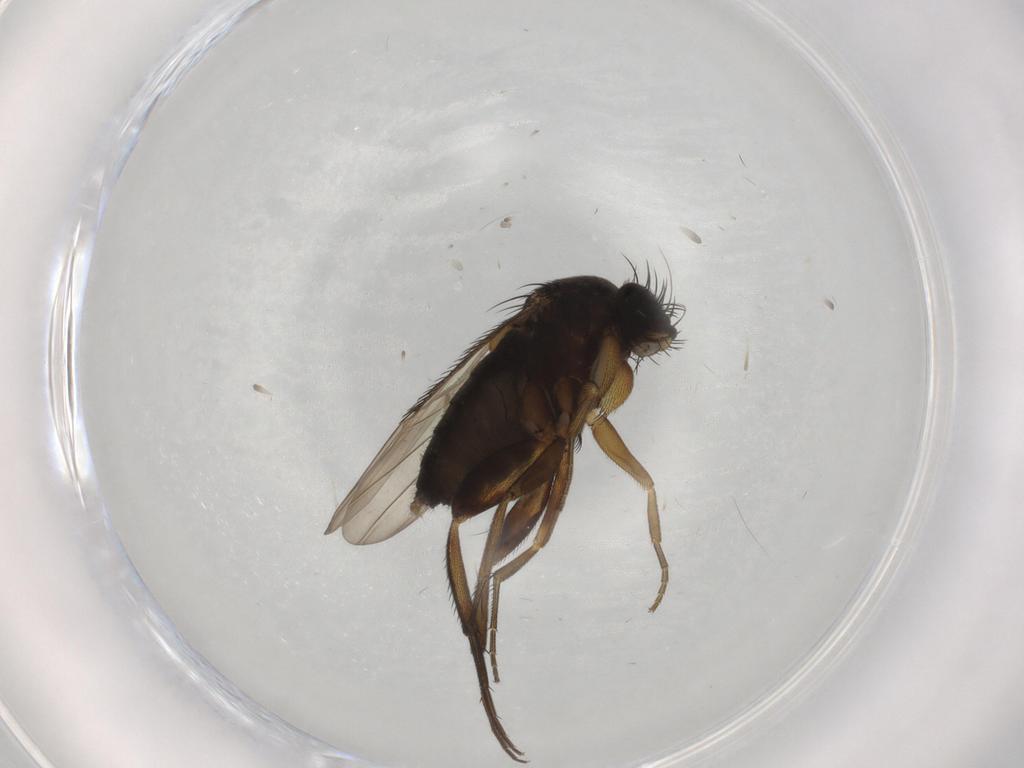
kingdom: Animalia
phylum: Arthropoda
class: Insecta
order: Diptera
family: Phoridae
